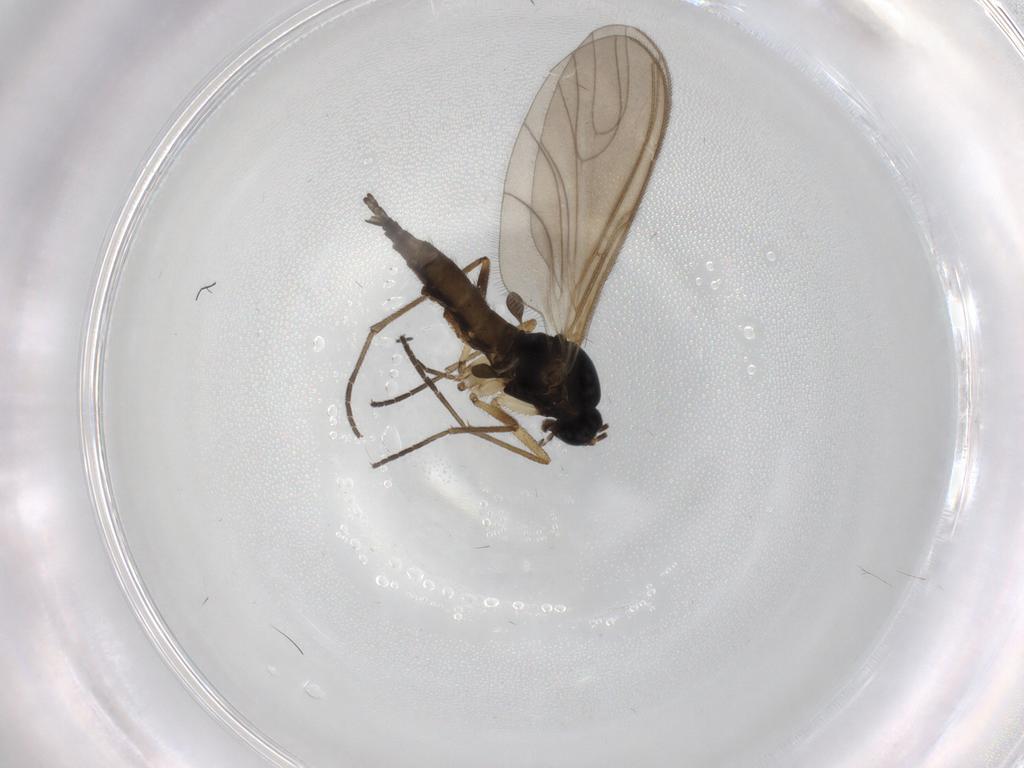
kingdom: Animalia
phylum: Arthropoda
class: Insecta
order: Diptera
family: Sciaridae
